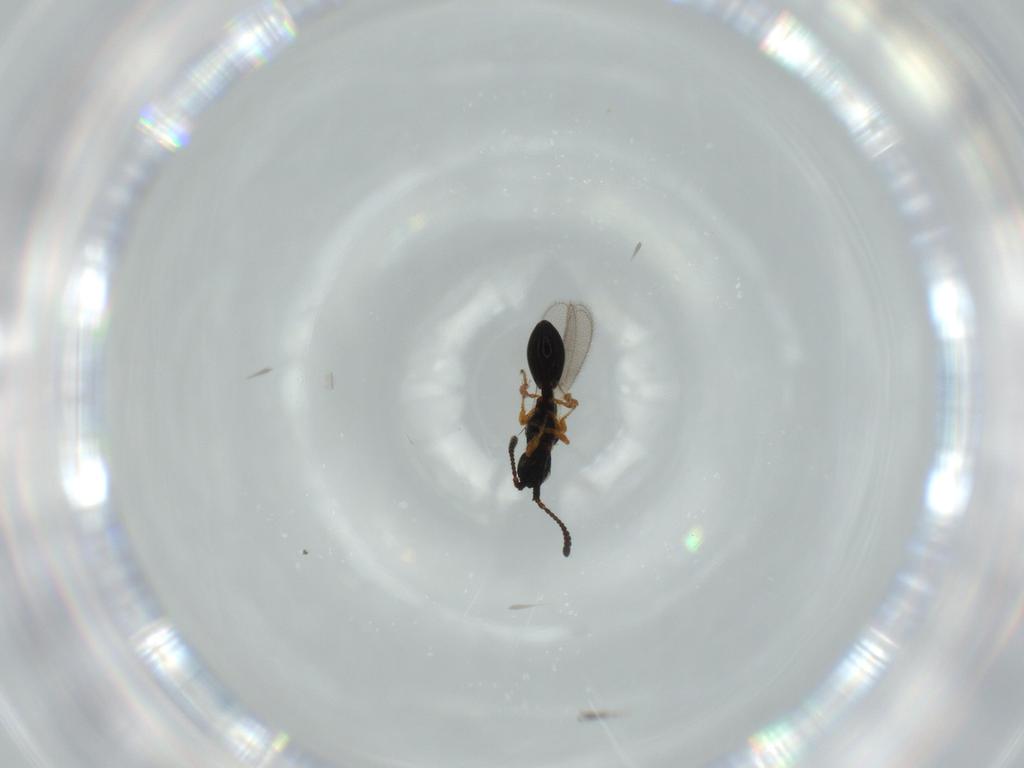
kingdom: Animalia
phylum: Arthropoda
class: Insecta
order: Hymenoptera
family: Diapriidae
